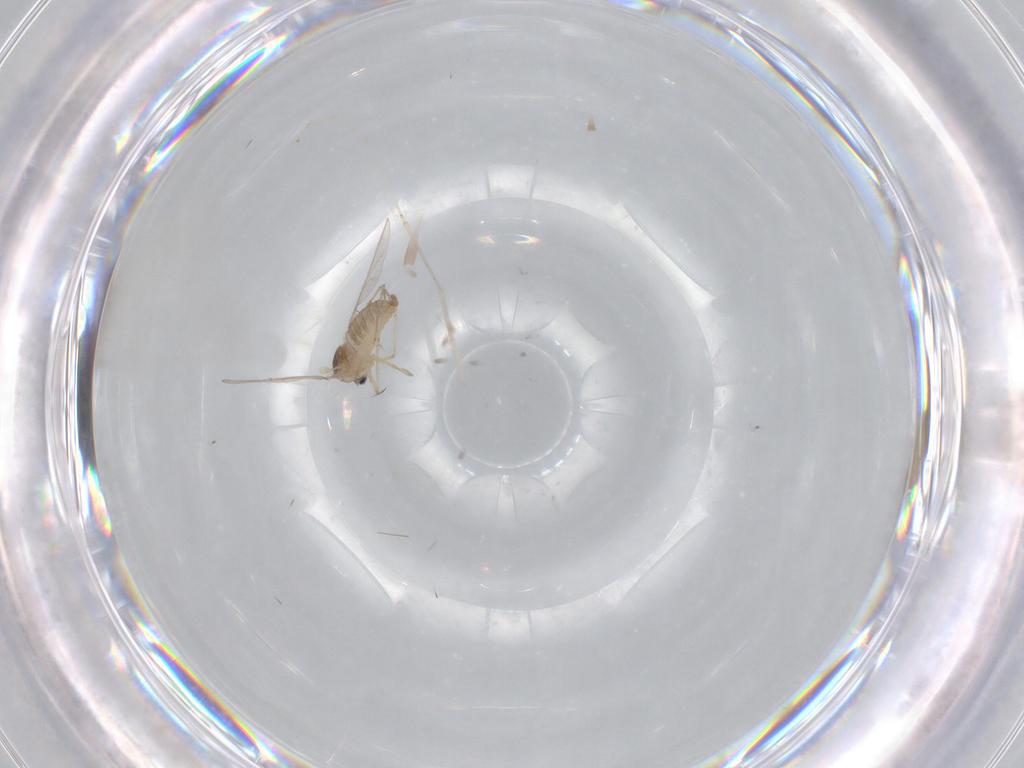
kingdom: Animalia
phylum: Arthropoda
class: Insecta
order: Diptera
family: Cecidomyiidae
